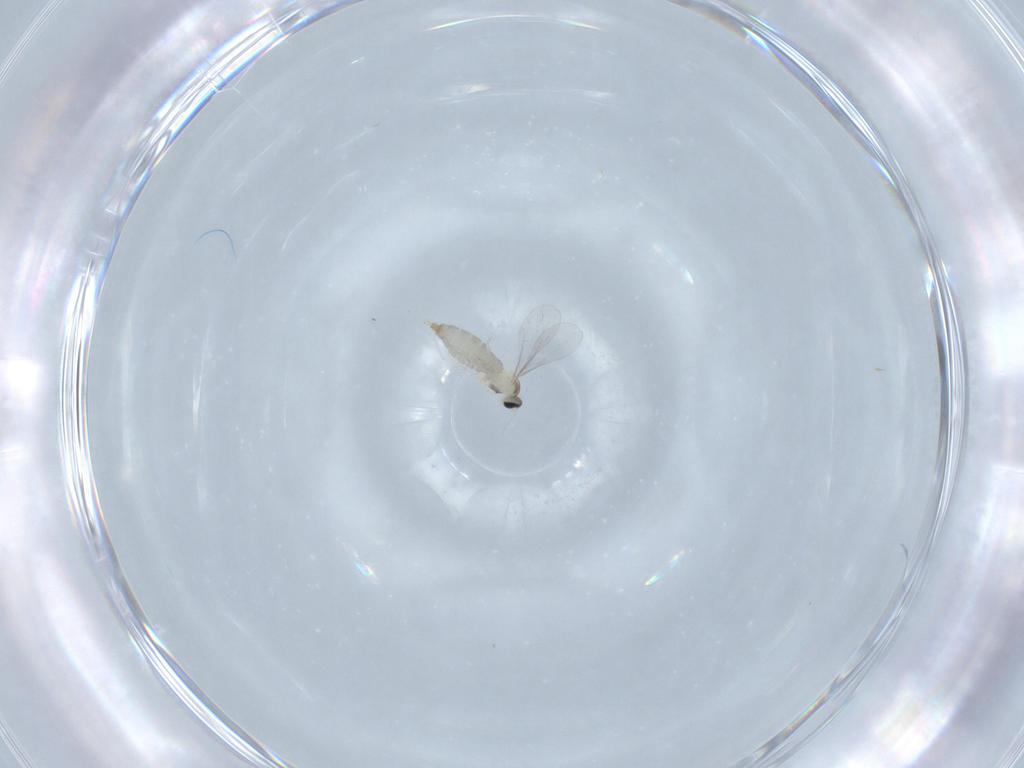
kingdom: Animalia
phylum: Arthropoda
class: Insecta
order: Diptera
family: Cecidomyiidae
